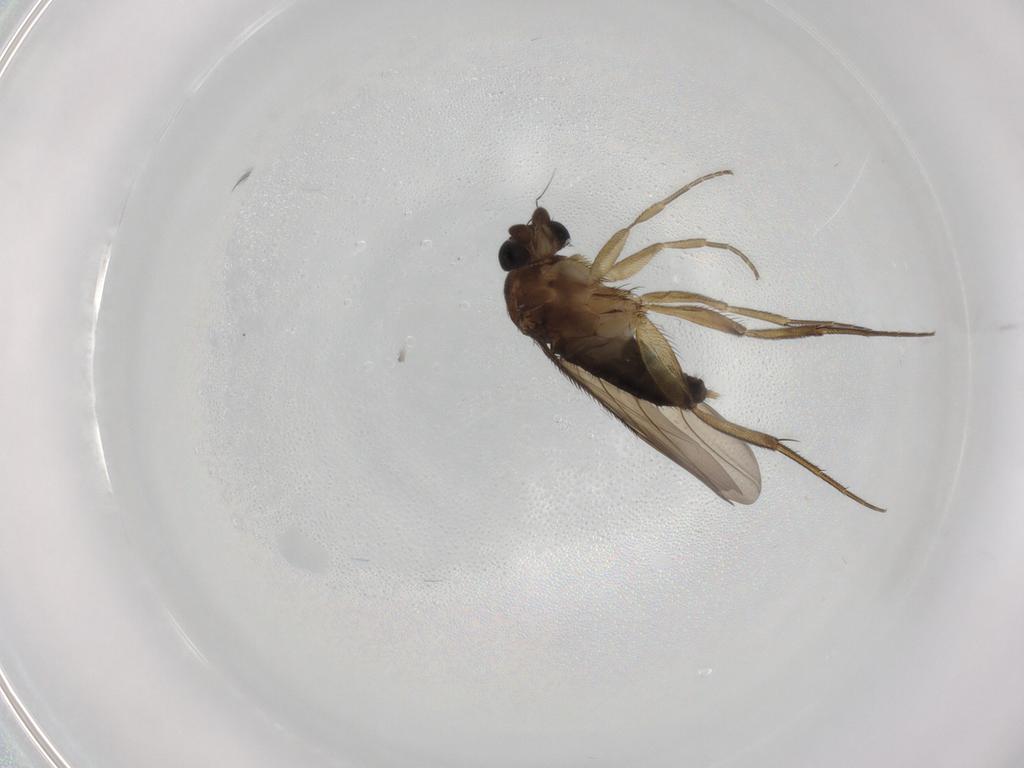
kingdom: Animalia
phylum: Arthropoda
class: Insecta
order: Diptera
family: Phoridae
